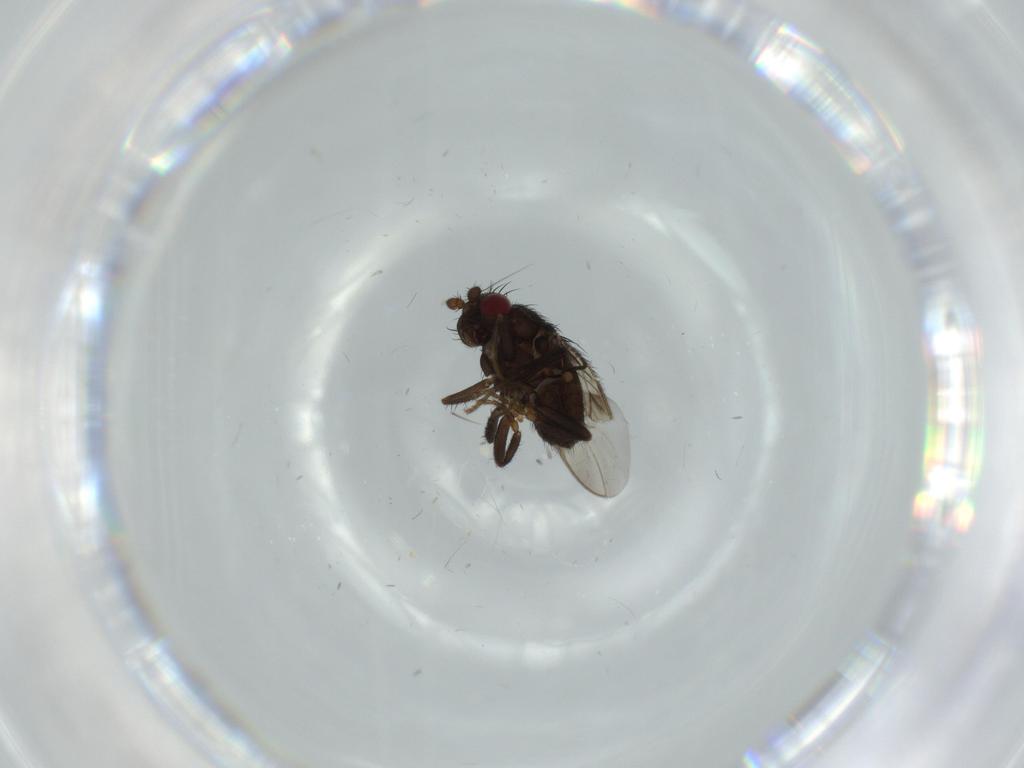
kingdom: Animalia
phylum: Arthropoda
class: Insecta
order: Diptera
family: Sciaridae
